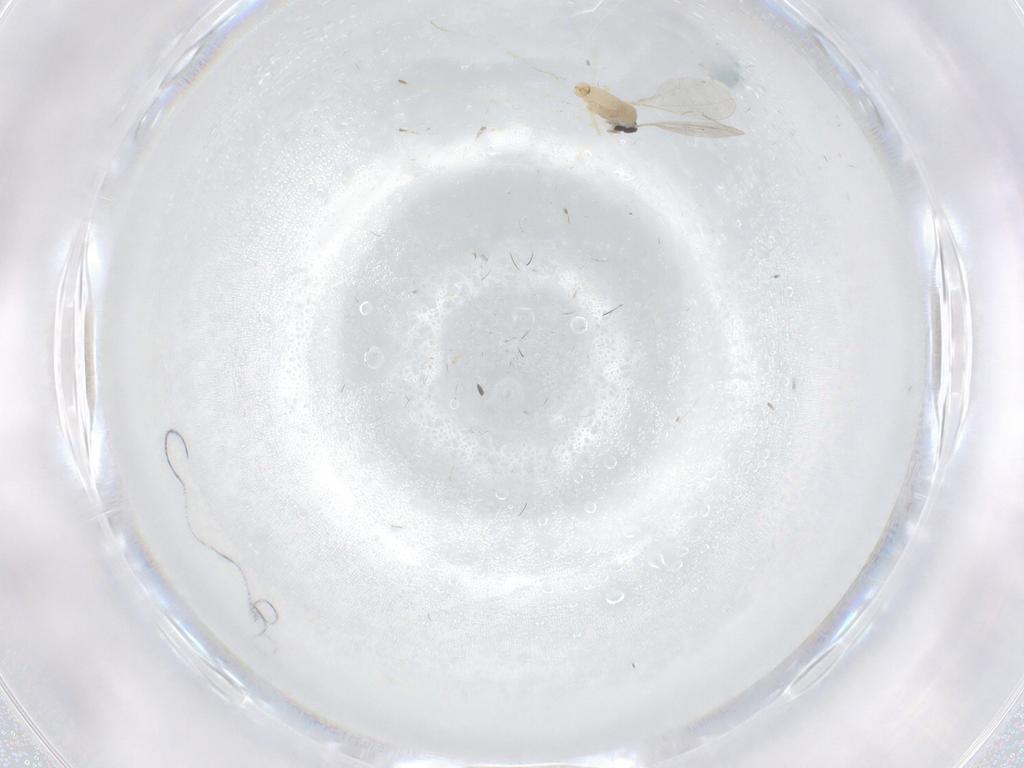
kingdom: Animalia
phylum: Arthropoda
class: Insecta
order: Diptera
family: Cecidomyiidae
